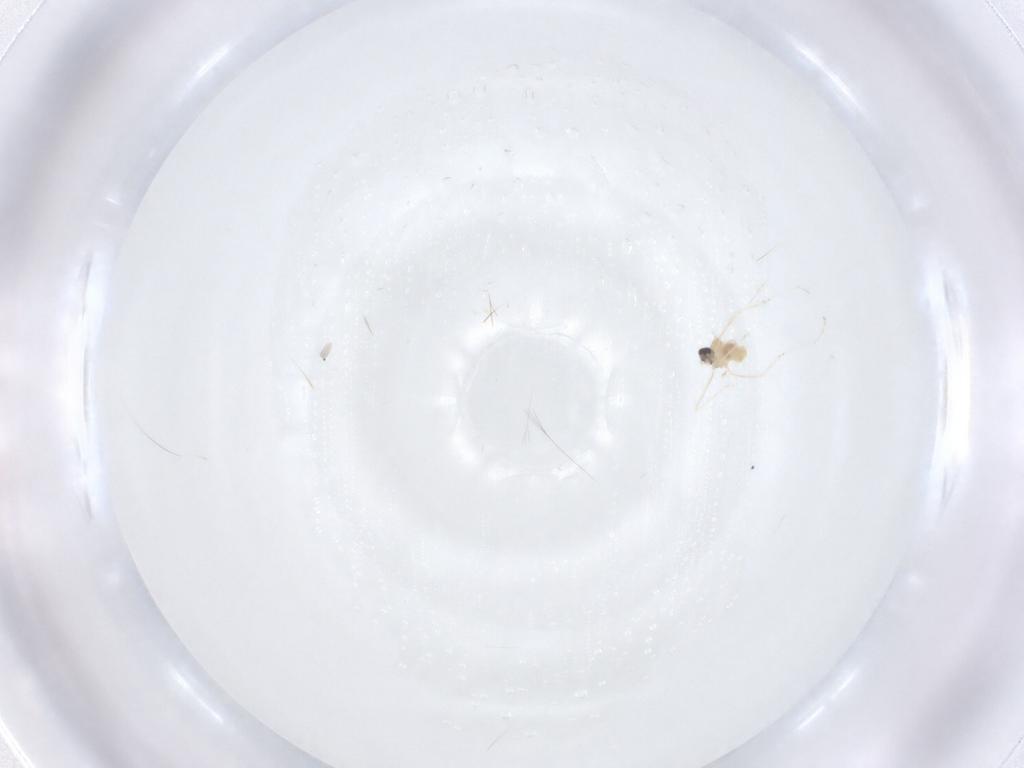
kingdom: Animalia
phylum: Arthropoda
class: Insecta
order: Diptera
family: Cecidomyiidae
